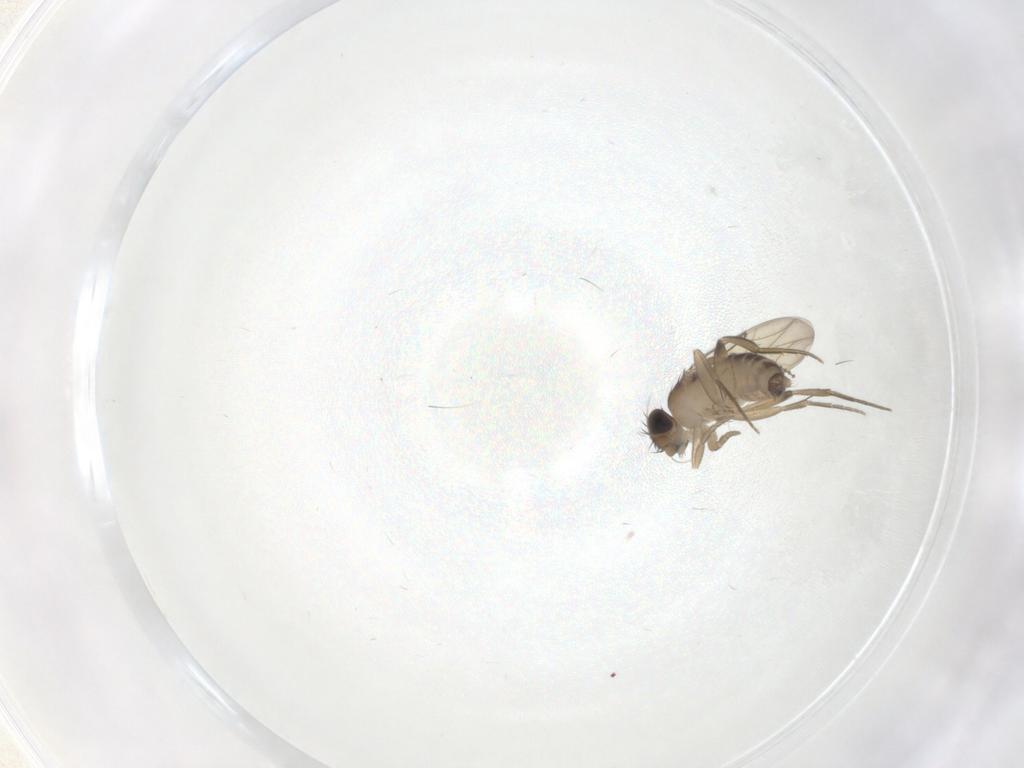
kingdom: Animalia
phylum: Arthropoda
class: Insecta
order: Diptera
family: Phoridae
